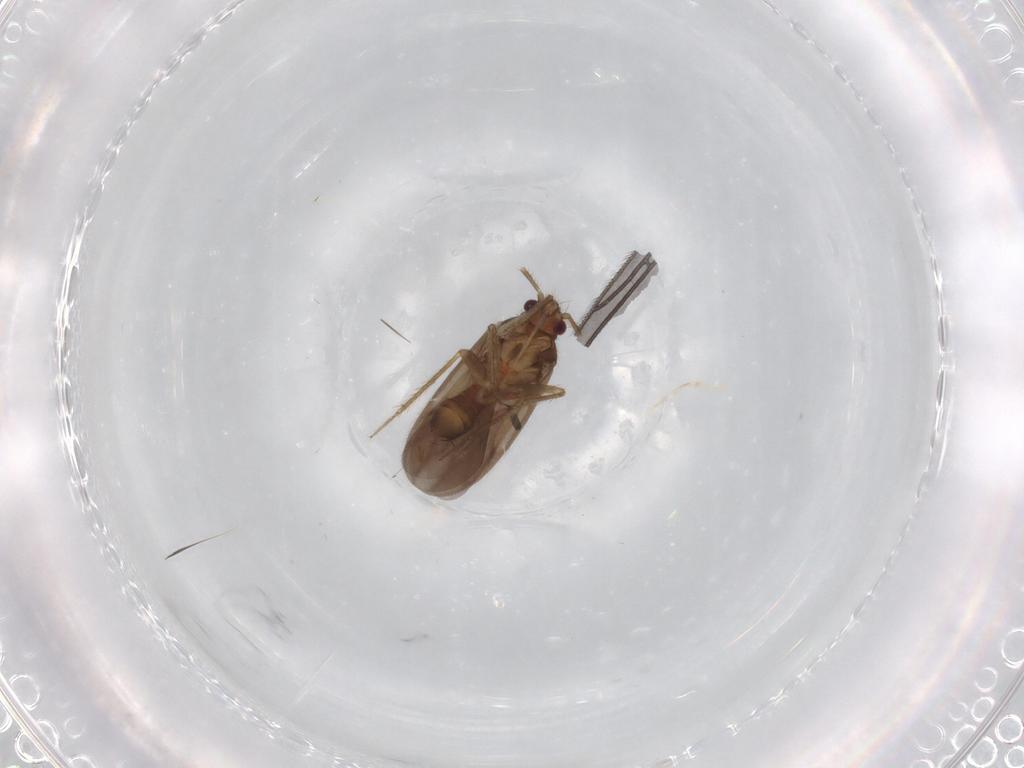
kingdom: Animalia
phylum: Arthropoda
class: Insecta
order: Hemiptera
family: Ceratocombidae
